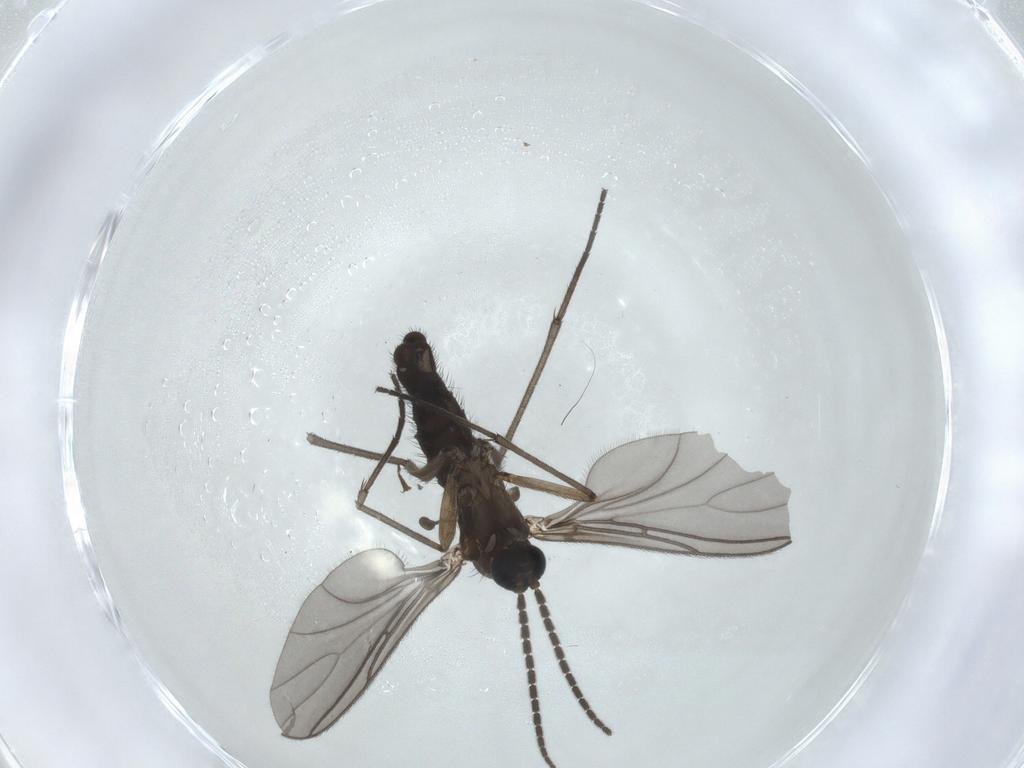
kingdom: Animalia
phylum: Arthropoda
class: Insecta
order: Diptera
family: Sciaridae
